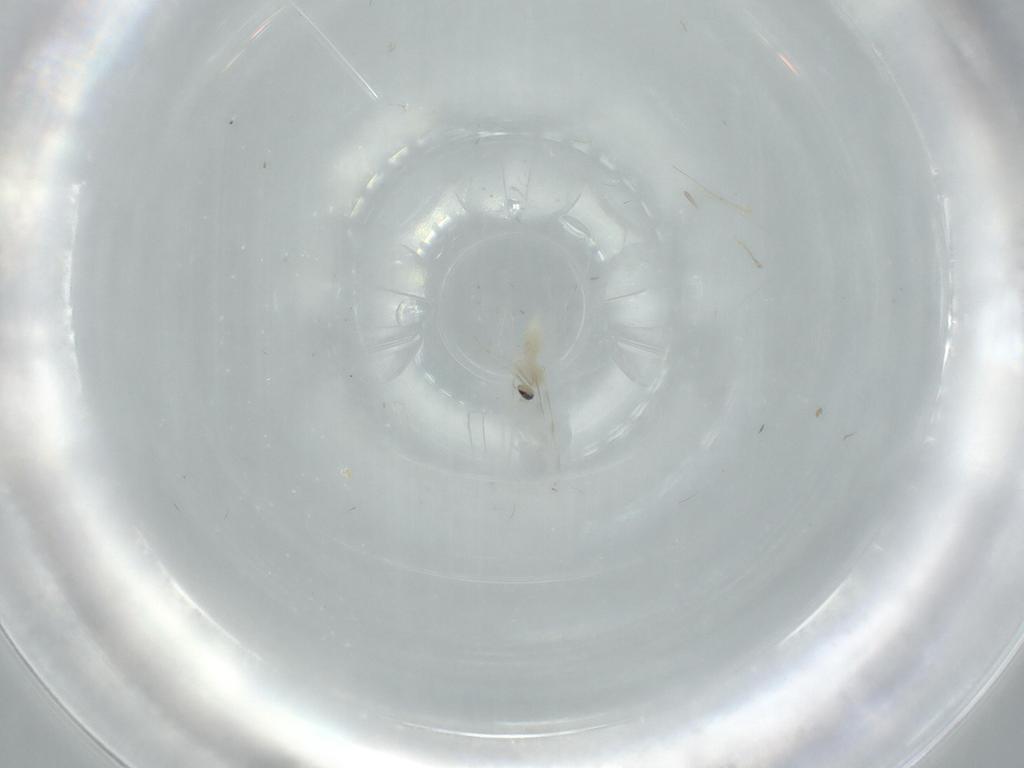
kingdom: Animalia
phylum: Arthropoda
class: Insecta
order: Diptera
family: Cecidomyiidae
